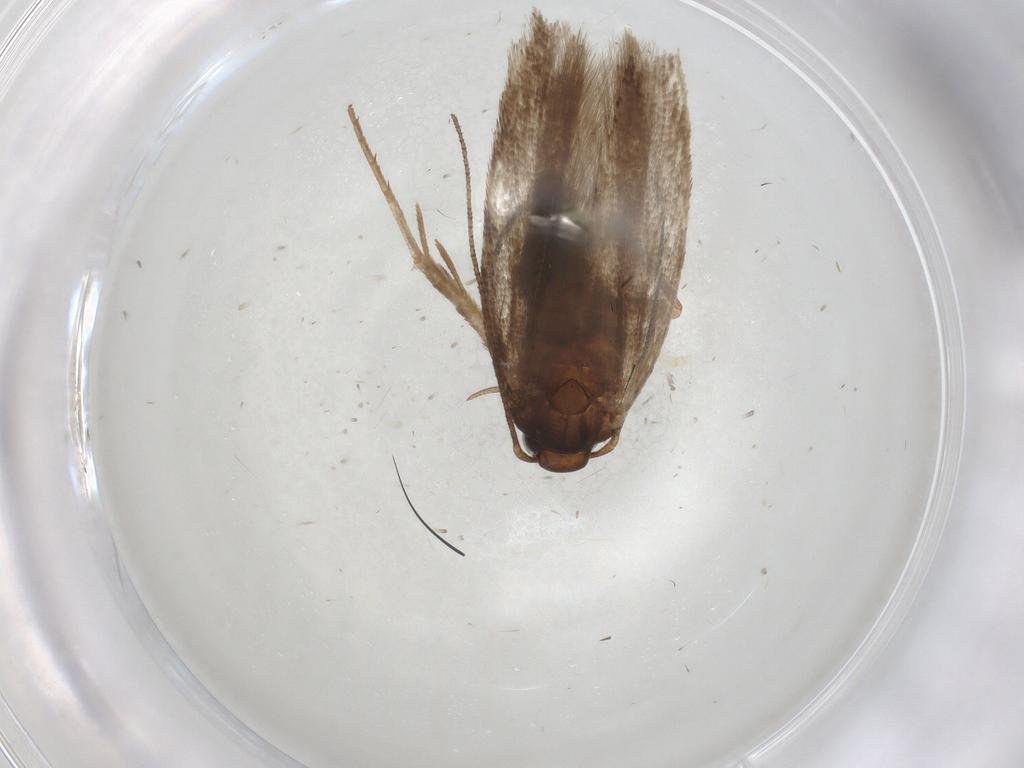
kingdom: Animalia
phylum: Arthropoda
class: Insecta
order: Lepidoptera
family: Gelechiidae
